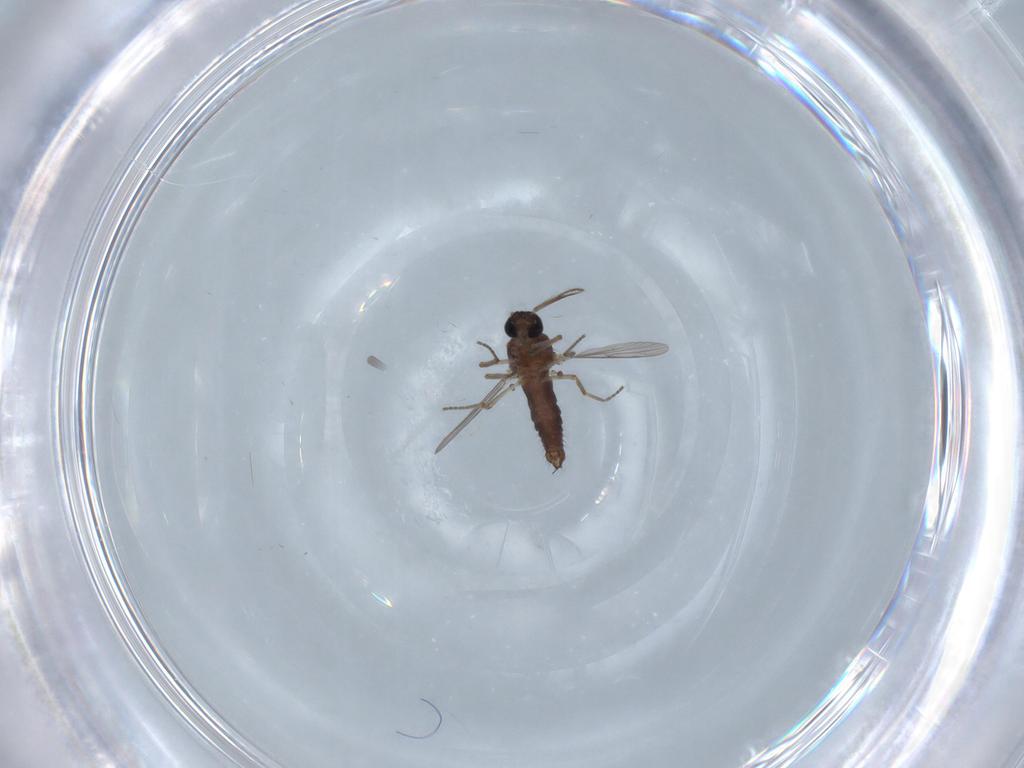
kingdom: Animalia
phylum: Arthropoda
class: Insecta
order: Diptera
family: Ceratopogonidae
